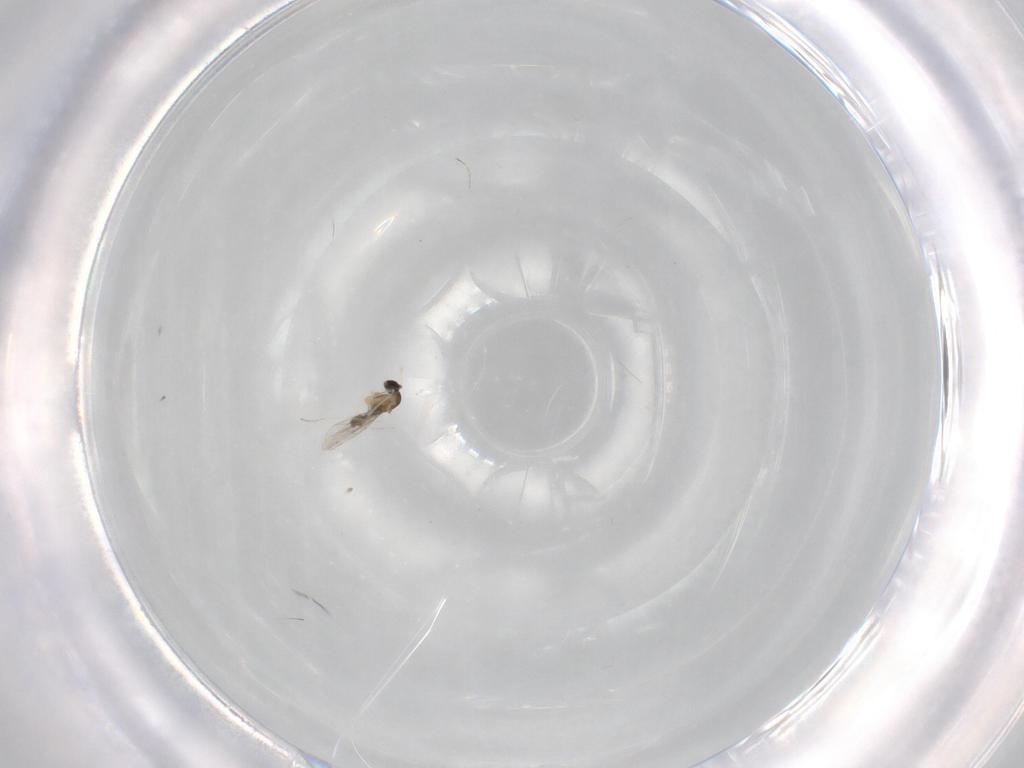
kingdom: Animalia
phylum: Arthropoda
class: Insecta
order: Diptera
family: Cecidomyiidae
